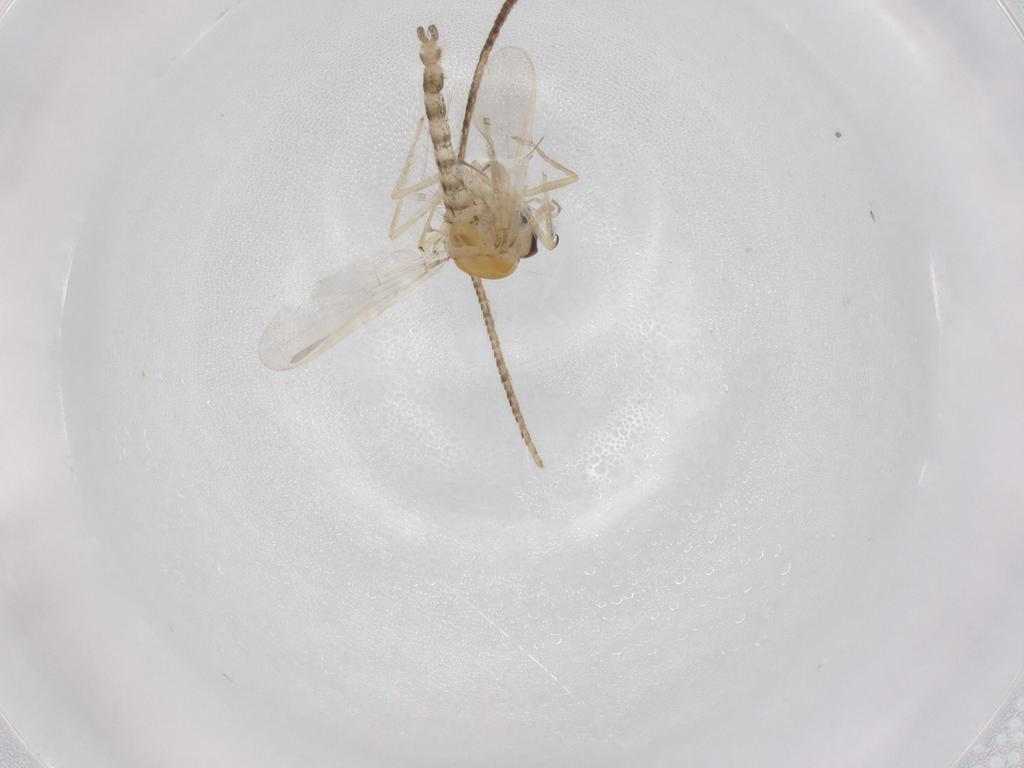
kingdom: Animalia
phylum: Arthropoda
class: Insecta
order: Diptera
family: Chironomidae
